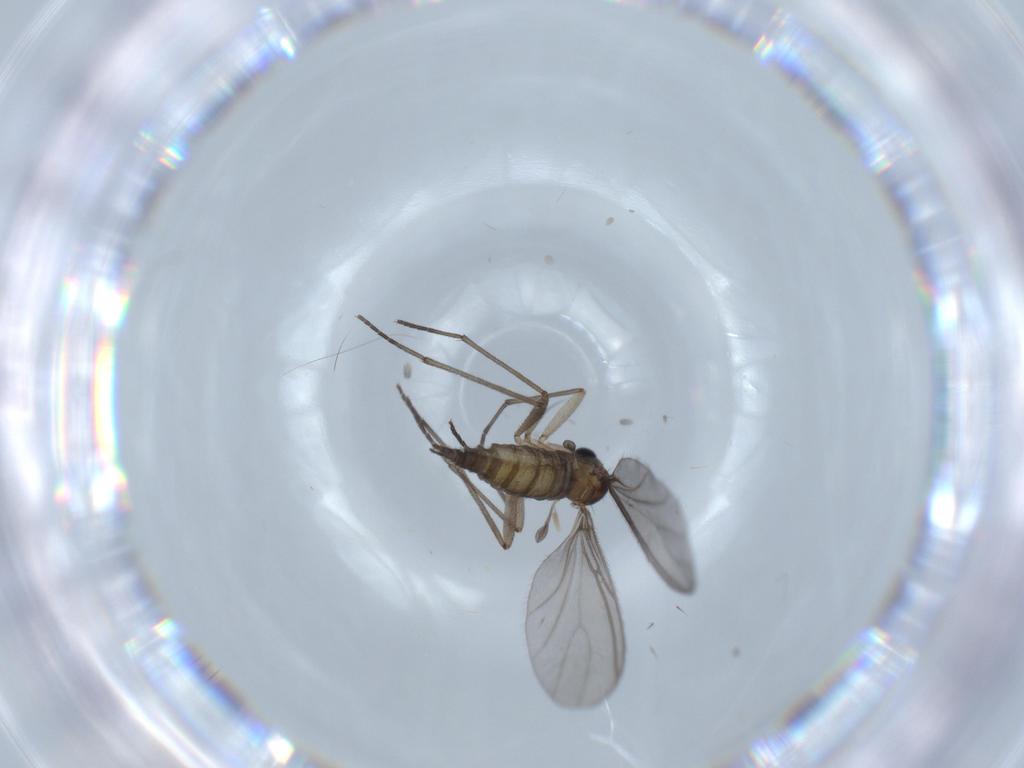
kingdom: Animalia
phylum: Arthropoda
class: Insecta
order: Diptera
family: Sciaridae
